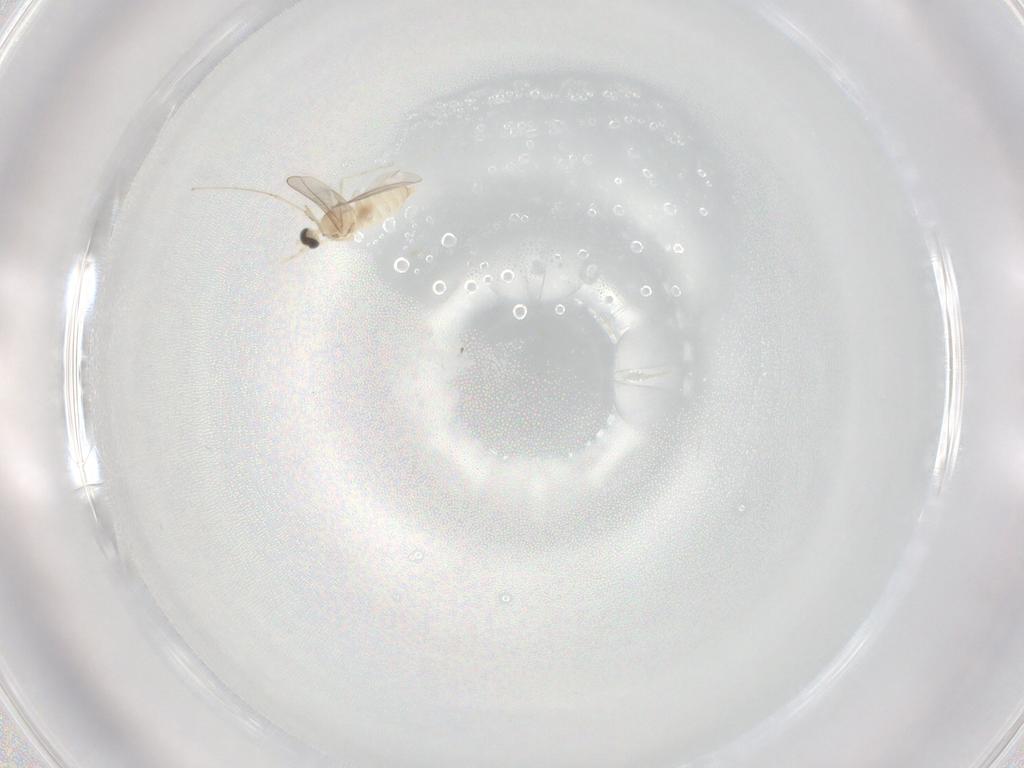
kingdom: Animalia
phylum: Arthropoda
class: Insecta
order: Diptera
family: Cecidomyiidae
